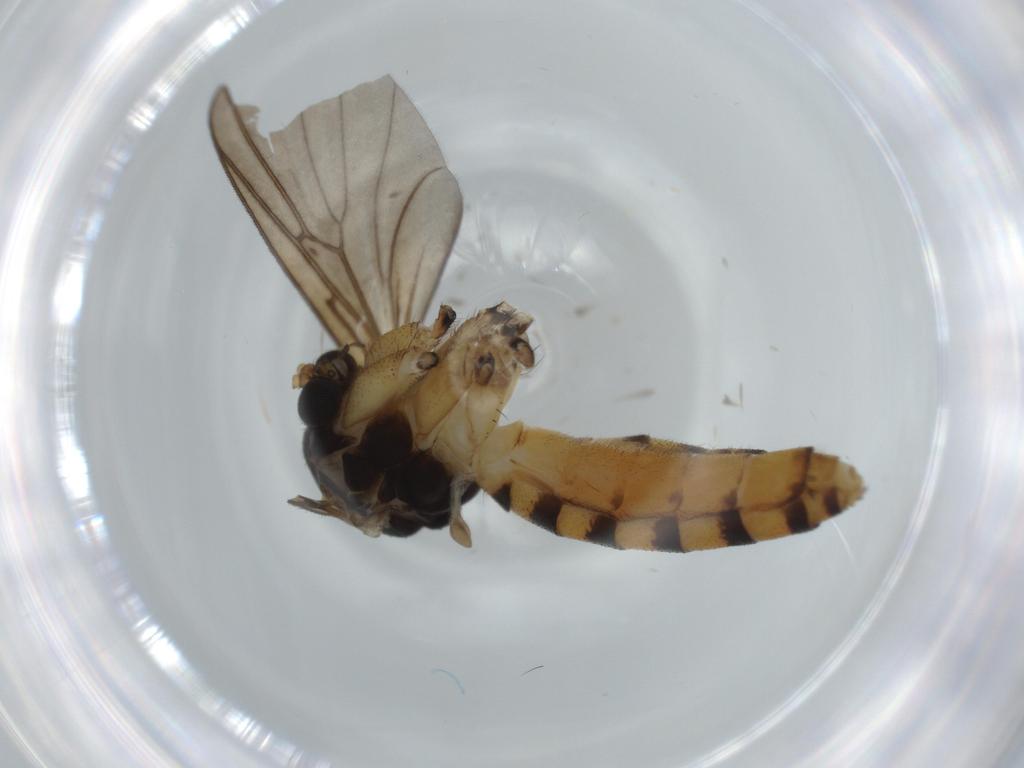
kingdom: Animalia
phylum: Arthropoda
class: Insecta
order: Diptera
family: Mycetophilidae
